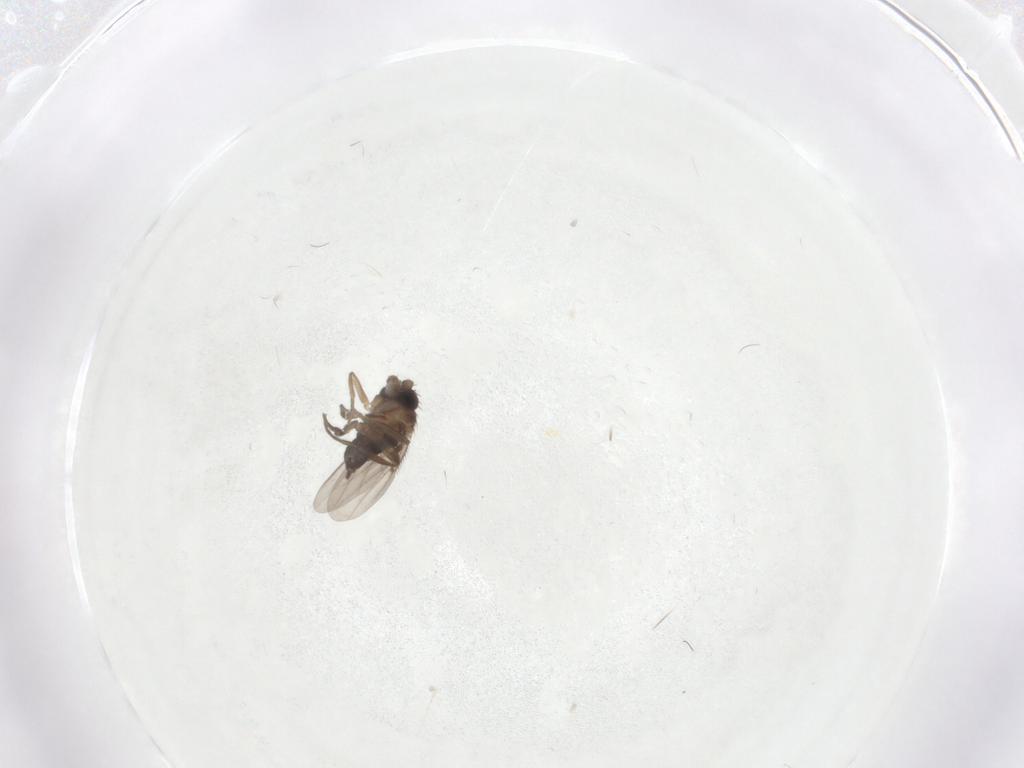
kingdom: Animalia
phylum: Arthropoda
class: Insecta
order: Diptera
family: Phoridae
